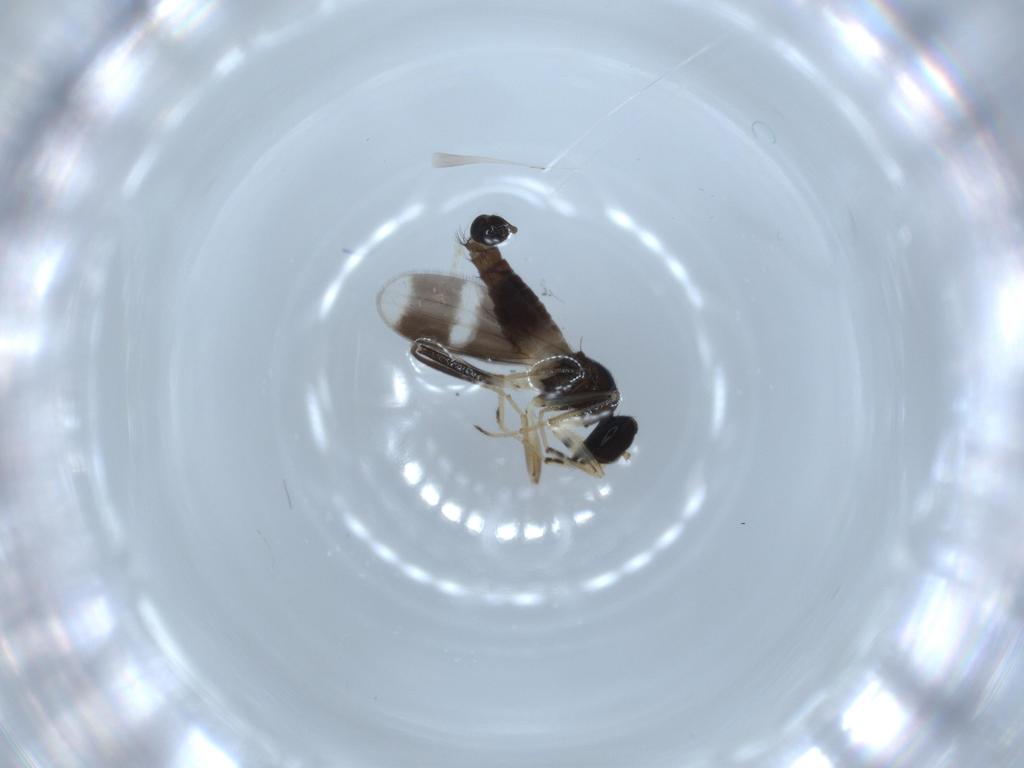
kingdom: Animalia
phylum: Arthropoda
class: Insecta
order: Diptera
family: Hybotidae
